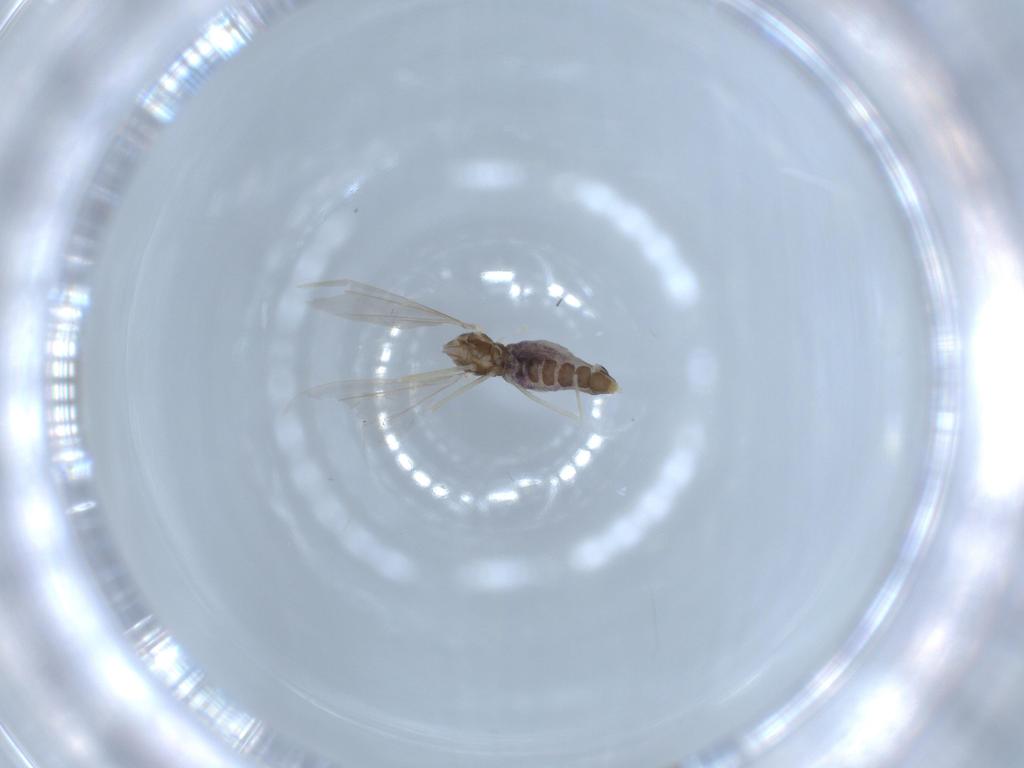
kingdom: Animalia
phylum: Arthropoda
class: Insecta
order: Diptera
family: Cecidomyiidae
